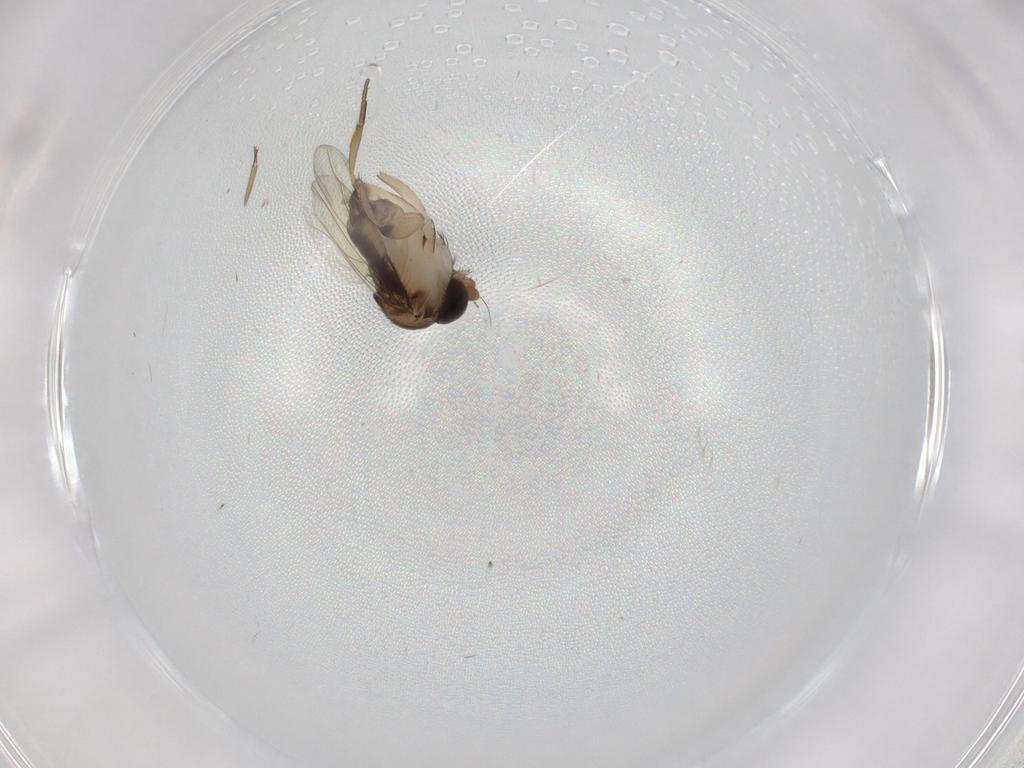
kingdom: Animalia
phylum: Arthropoda
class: Insecta
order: Diptera
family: Phoridae
